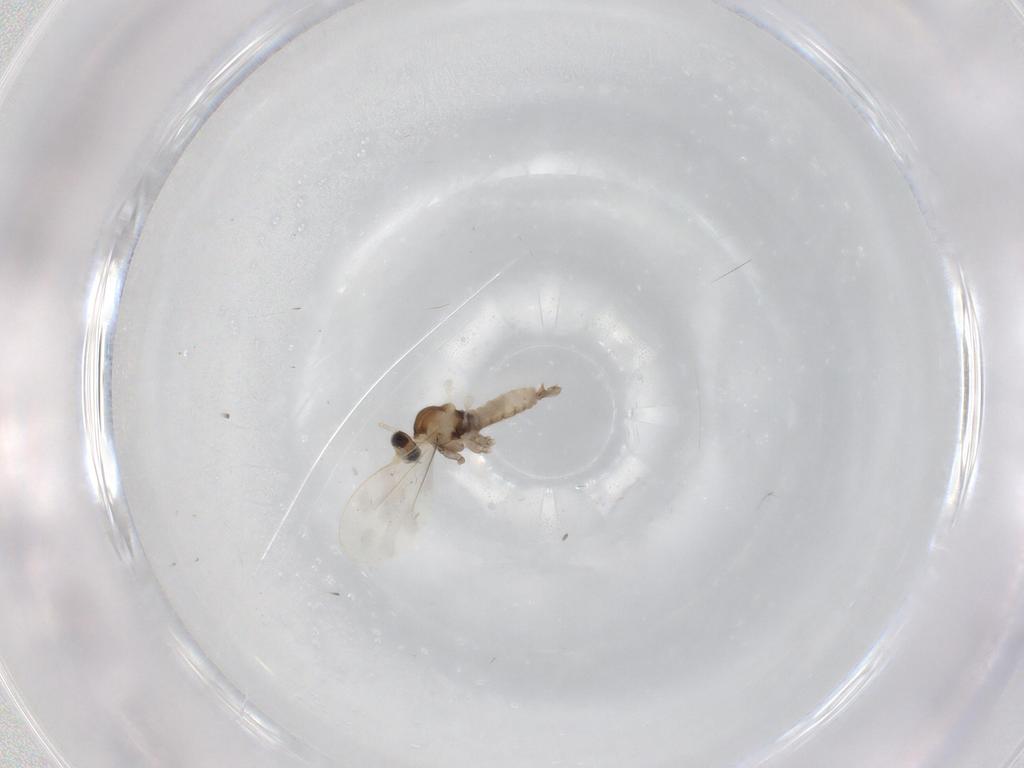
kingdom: Animalia
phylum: Arthropoda
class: Insecta
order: Diptera
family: Cecidomyiidae
